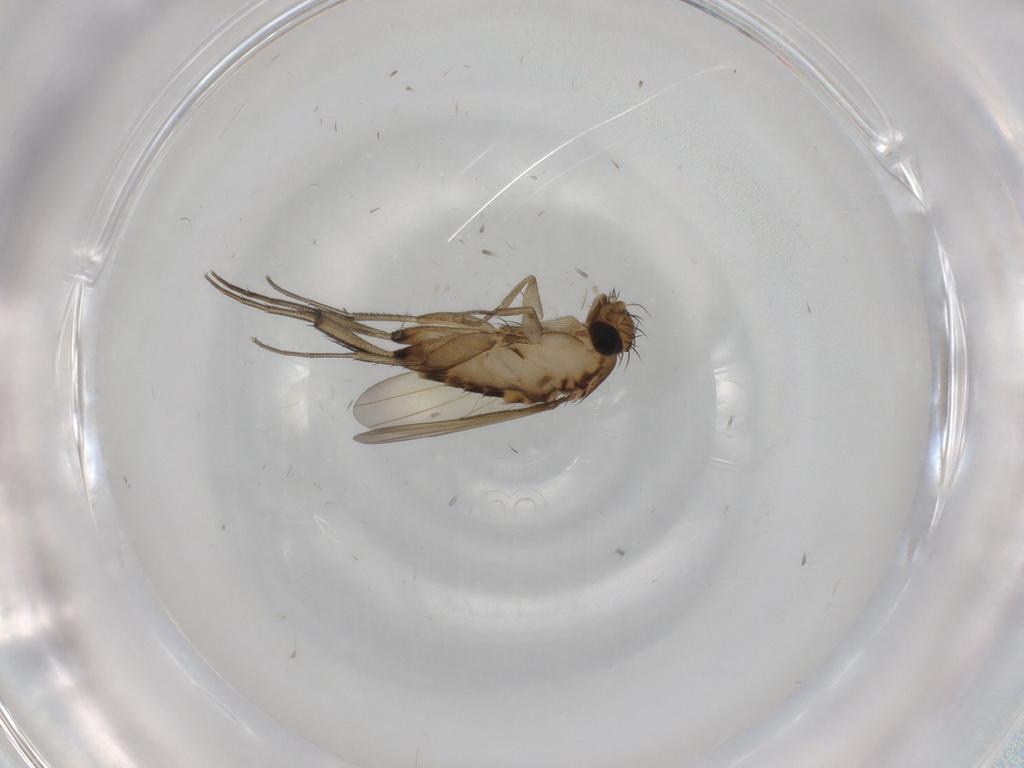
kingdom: Animalia
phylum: Arthropoda
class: Insecta
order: Diptera
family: Phoridae
